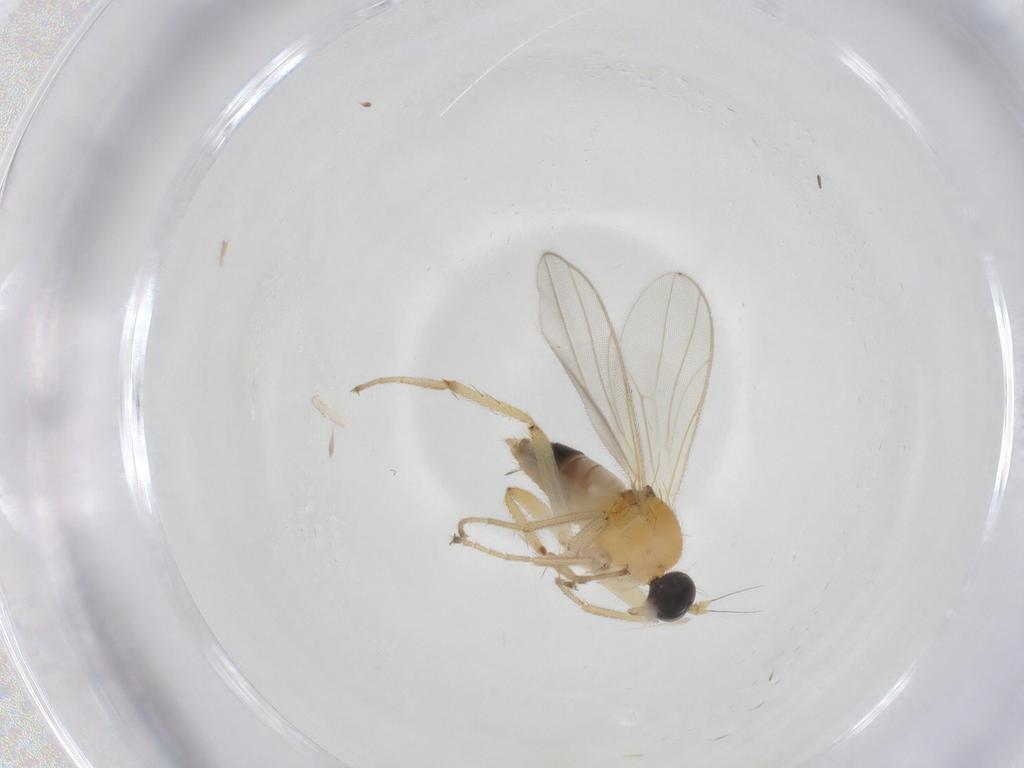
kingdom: Animalia
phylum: Arthropoda
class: Insecta
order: Diptera
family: Hybotidae
